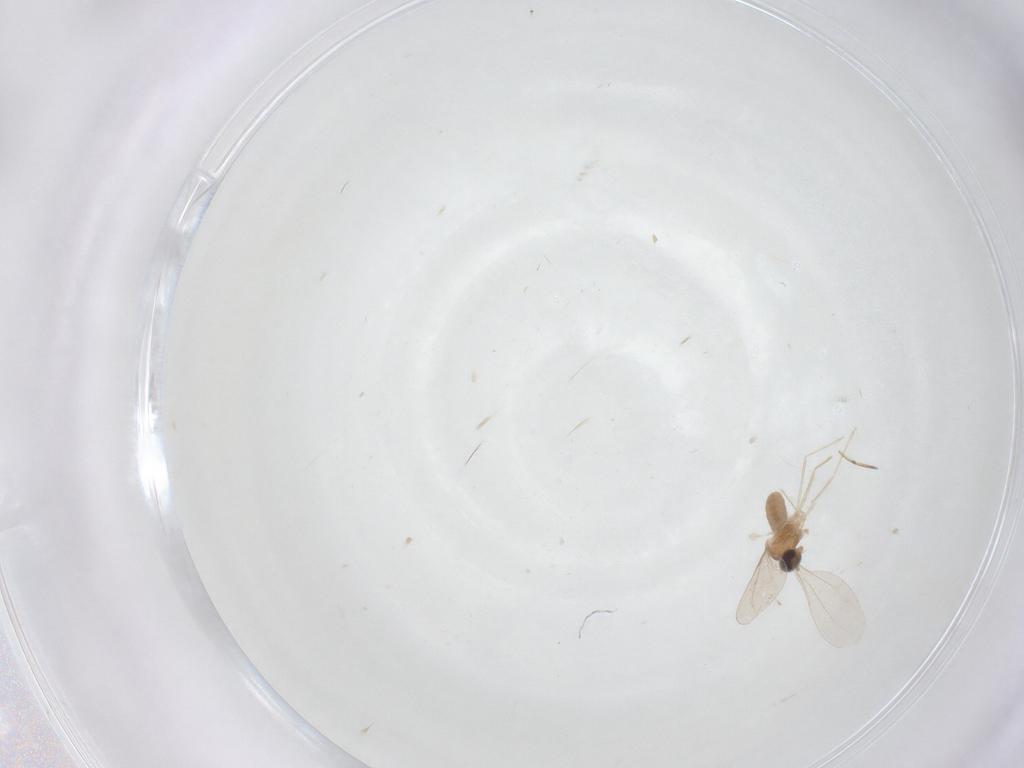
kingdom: Animalia
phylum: Arthropoda
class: Insecta
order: Diptera
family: Cecidomyiidae
